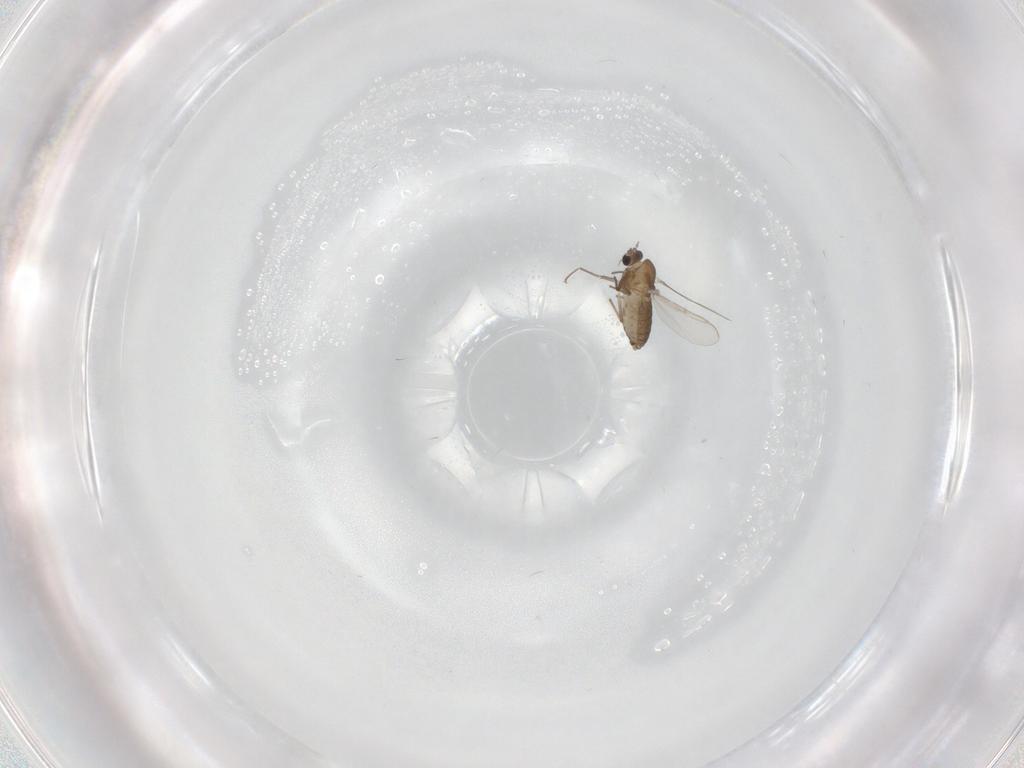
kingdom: Animalia
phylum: Arthropoda
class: Insecta
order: Diptera
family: Chironomidae
